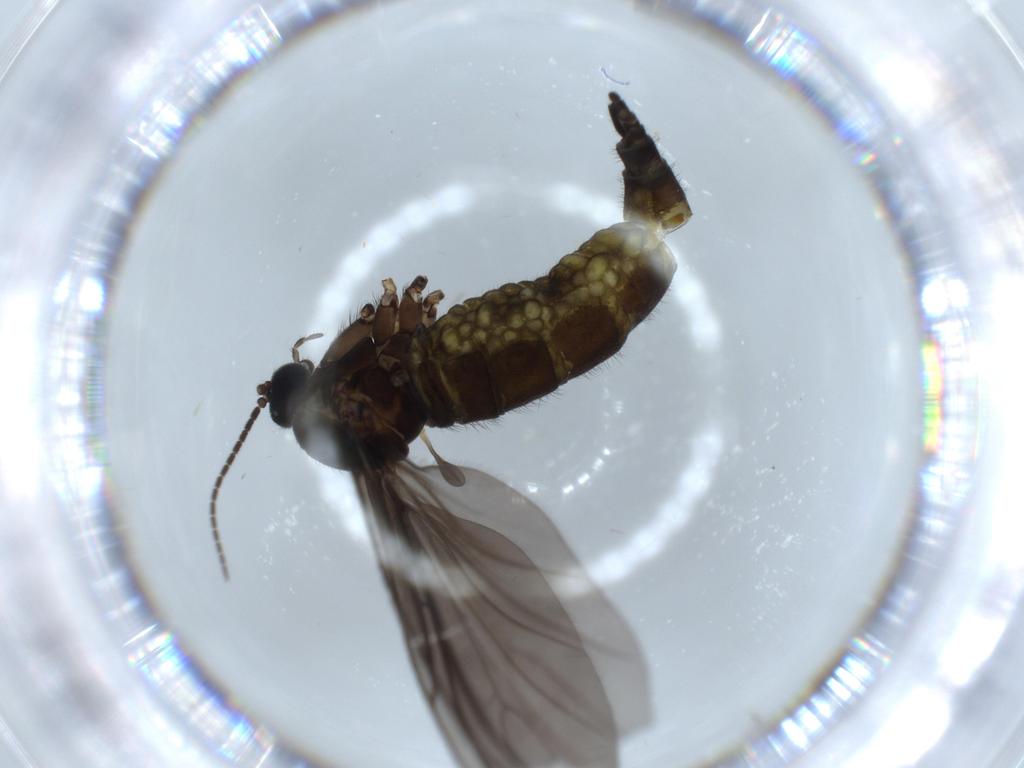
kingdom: Animalia
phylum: Arthropoda
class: Insecta
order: Diptera
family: Sciaridae
